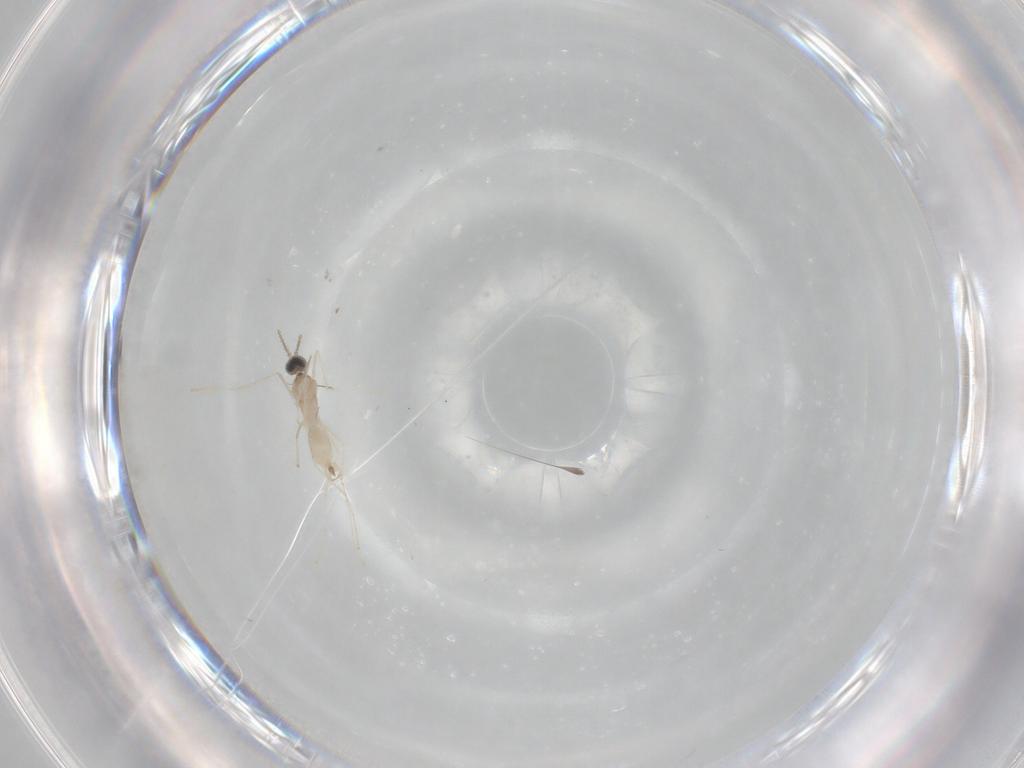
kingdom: Animalia
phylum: Arthropoda
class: Insecta
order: Diptera
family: Cecidomyiidae
